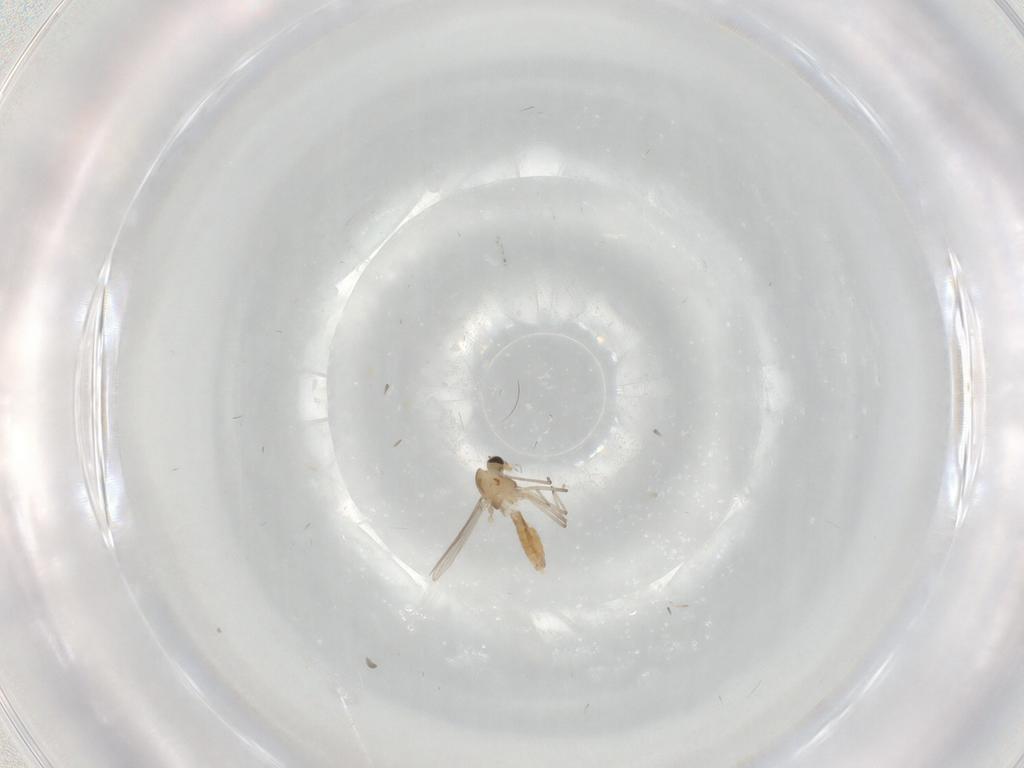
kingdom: Animalia
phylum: Arthropoda
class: Insecta
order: Diptera
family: Chironomidae
